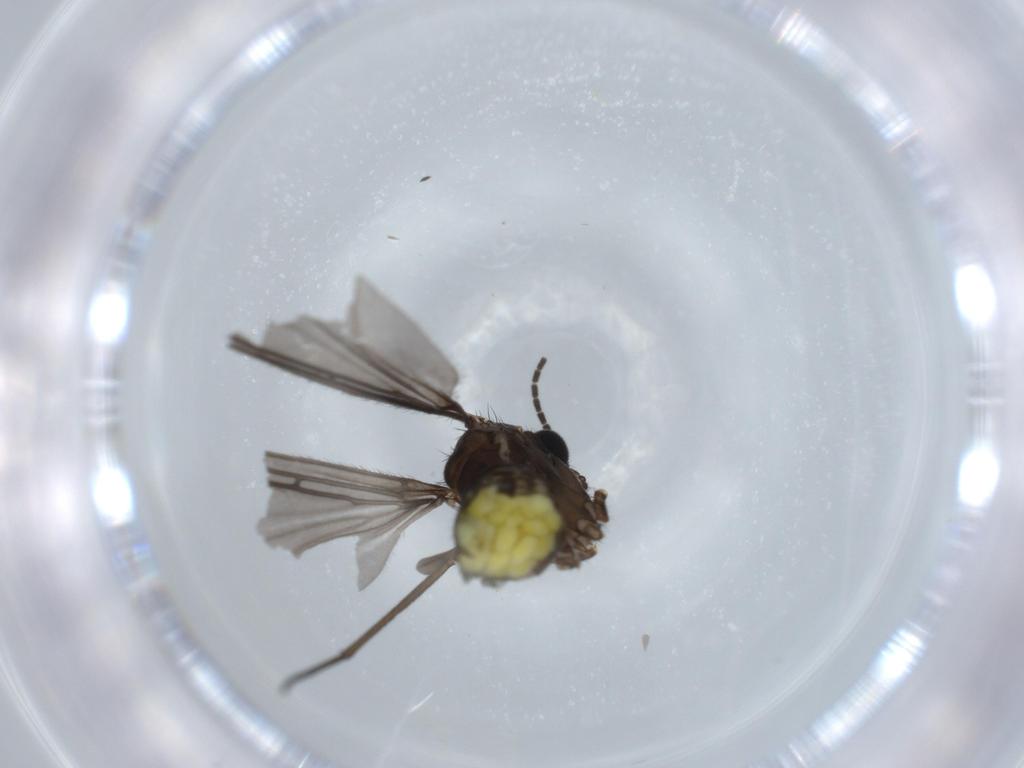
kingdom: Animalia
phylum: Arthropoda
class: Insecta
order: Diptera
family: Sciaridae
